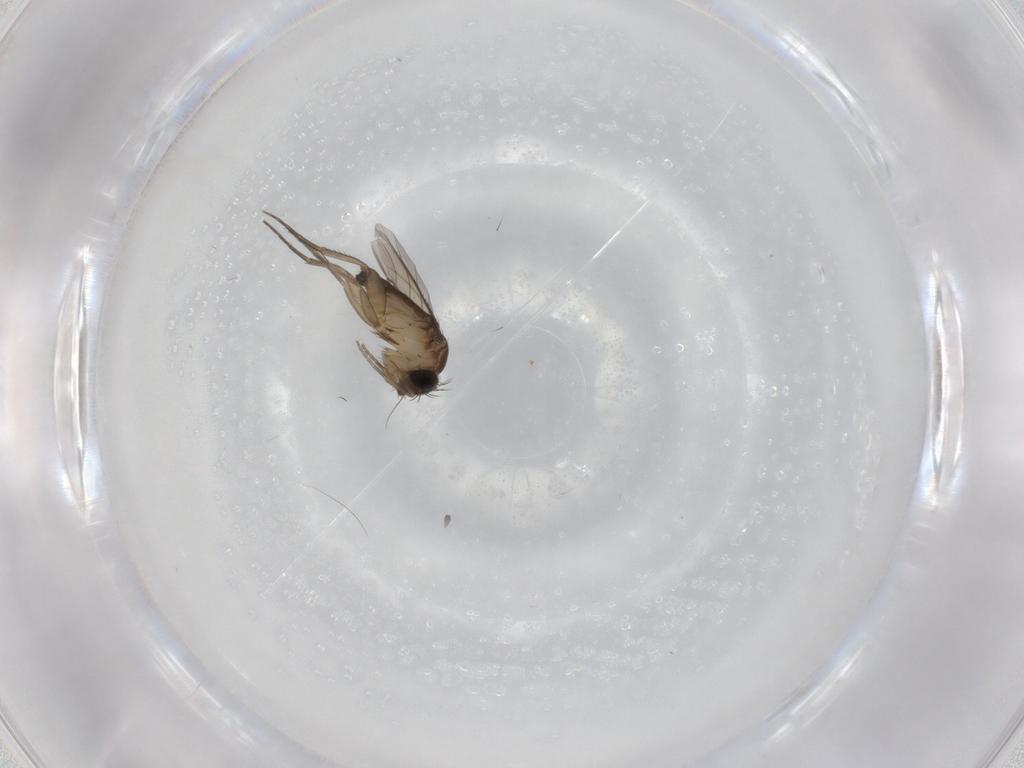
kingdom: Animalia
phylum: Arthropoda
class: Insecta
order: Diptera
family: Phoridae
